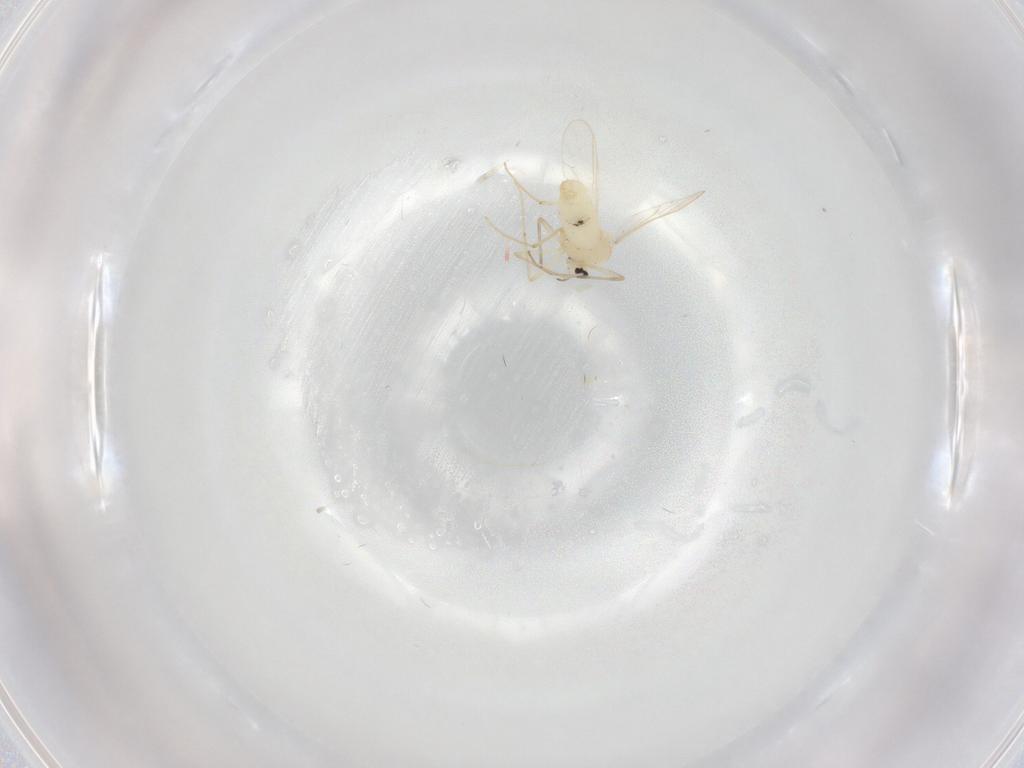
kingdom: Animalia
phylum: Arthropoda
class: Insecta
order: Diptera
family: Chironomidae
